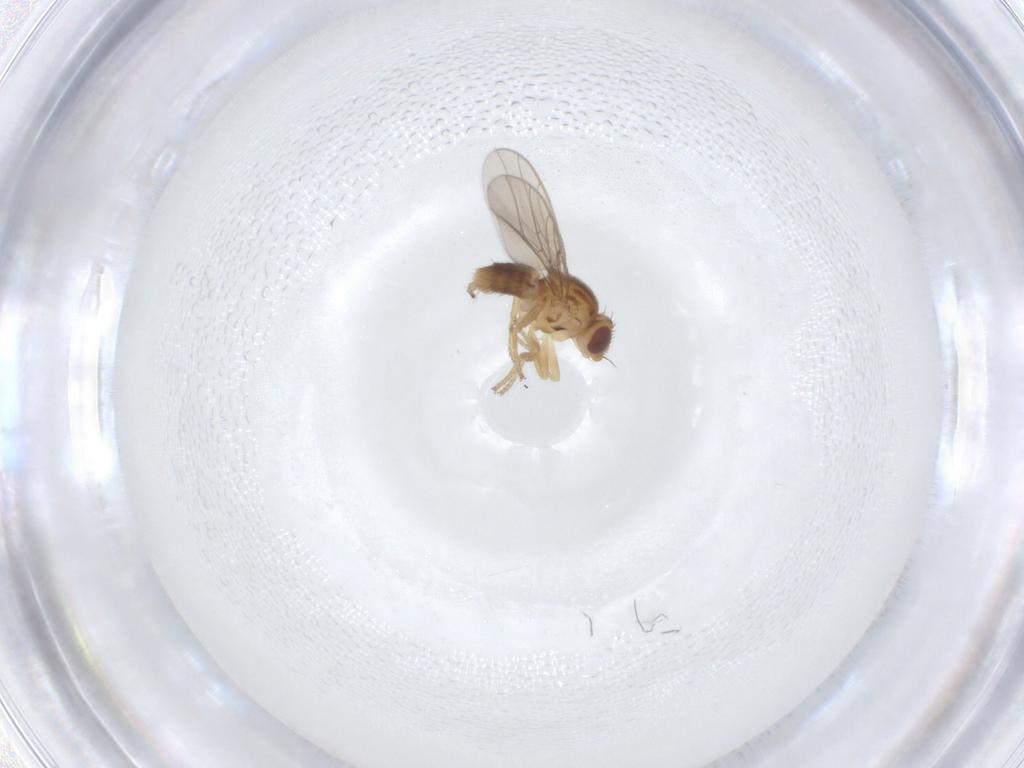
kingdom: Animalia
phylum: Arthropoda
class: Insecta
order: Diptera
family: Chloropidae
